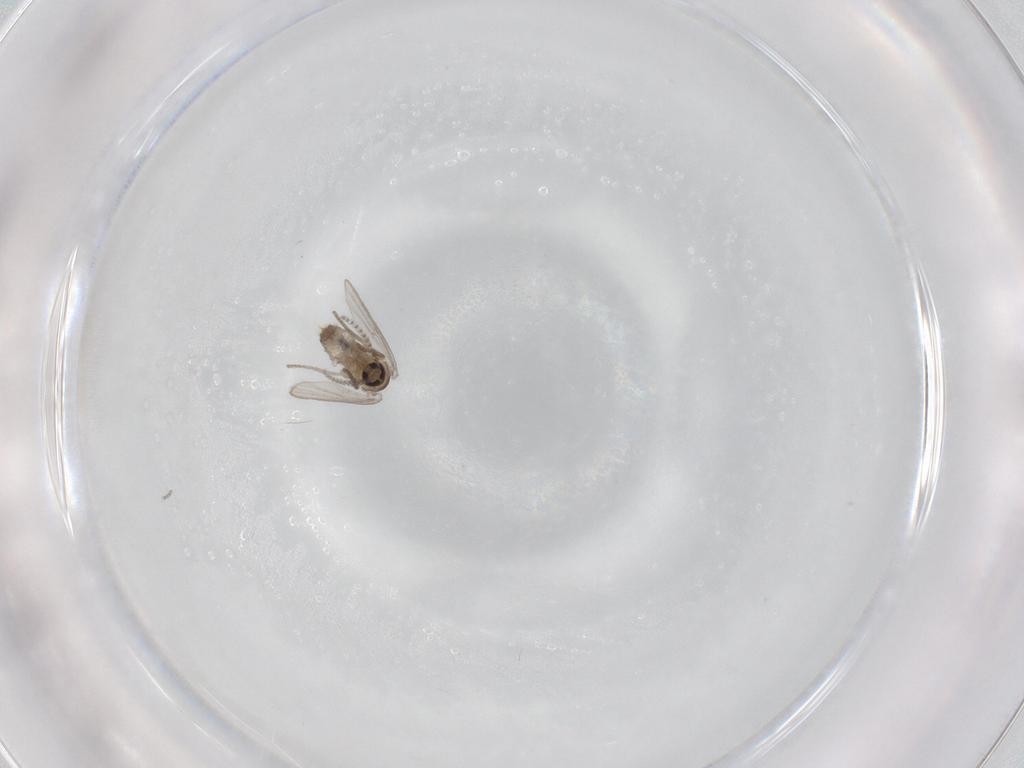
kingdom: Animalia
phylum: Arthropoda
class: Insecta
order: Diptera
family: Psychodidae
